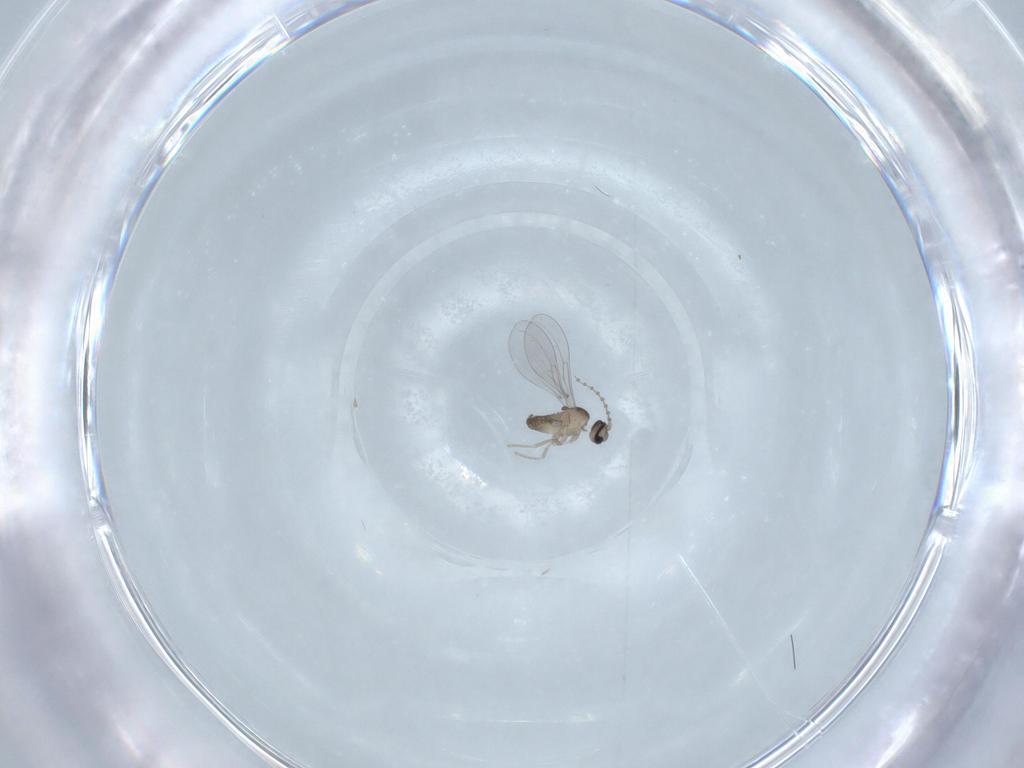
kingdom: Animalia
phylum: Arthropoda
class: Insecta
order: Diptera
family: Cecidomyiidae
